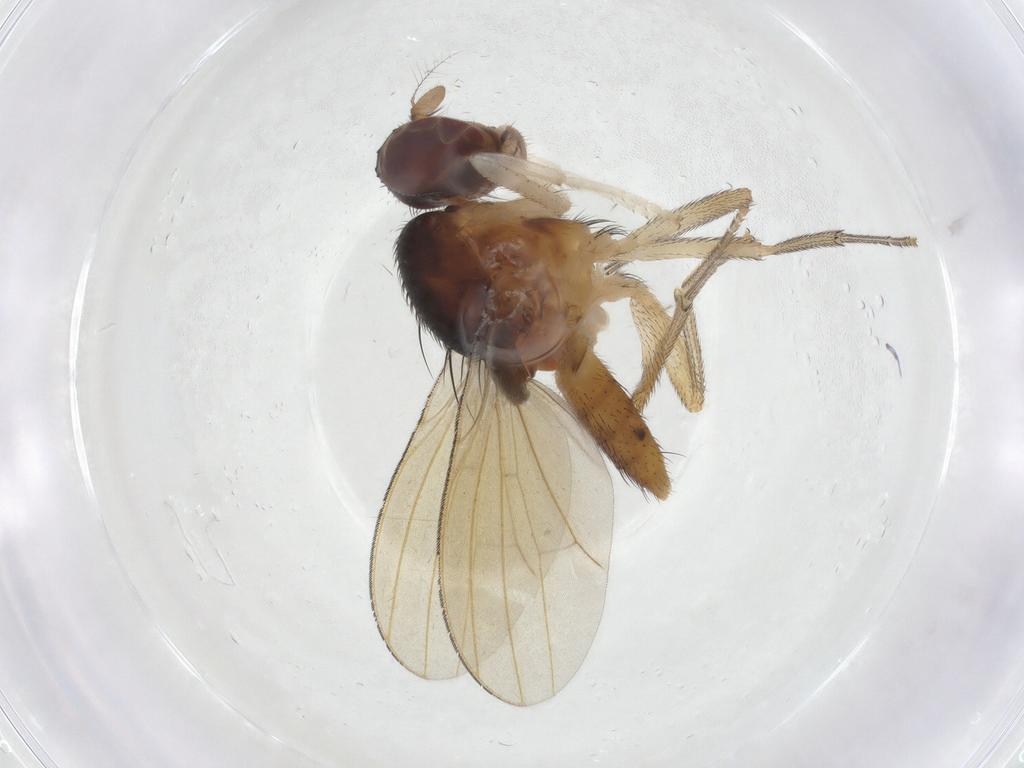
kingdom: Animalia
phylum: Arthropoda
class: Insecta
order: Diptera
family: Lauxaniidae
